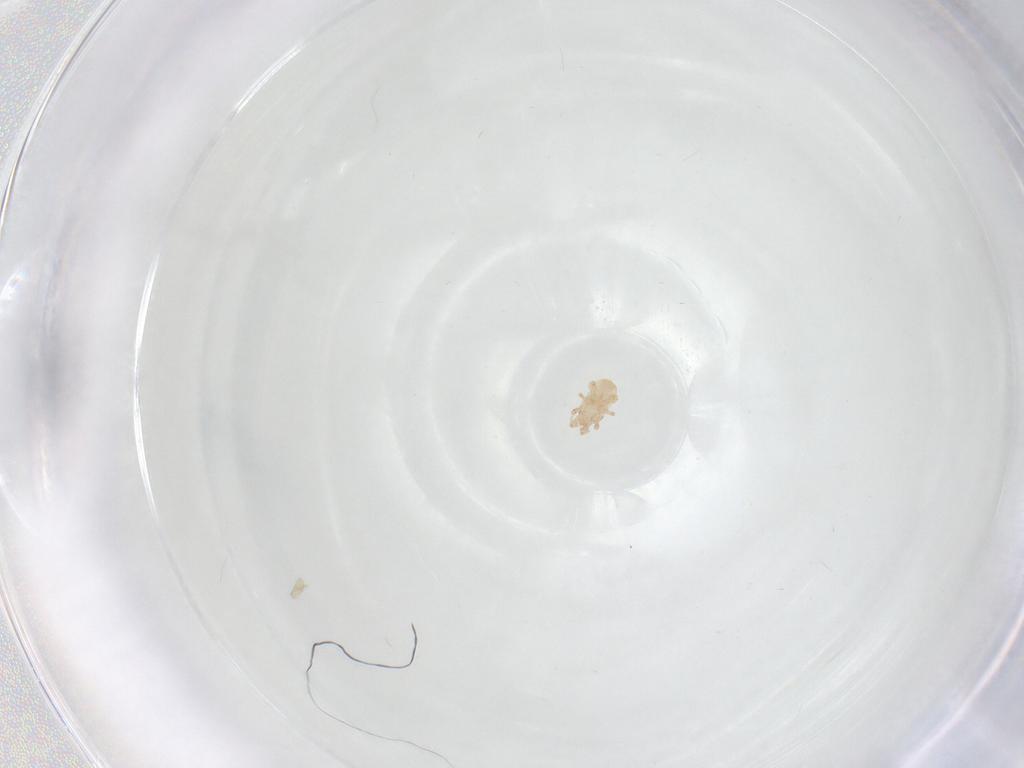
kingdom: Animalia
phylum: Arthropoda
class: Arachnida
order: Mesostigmata
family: Digamasellidae
